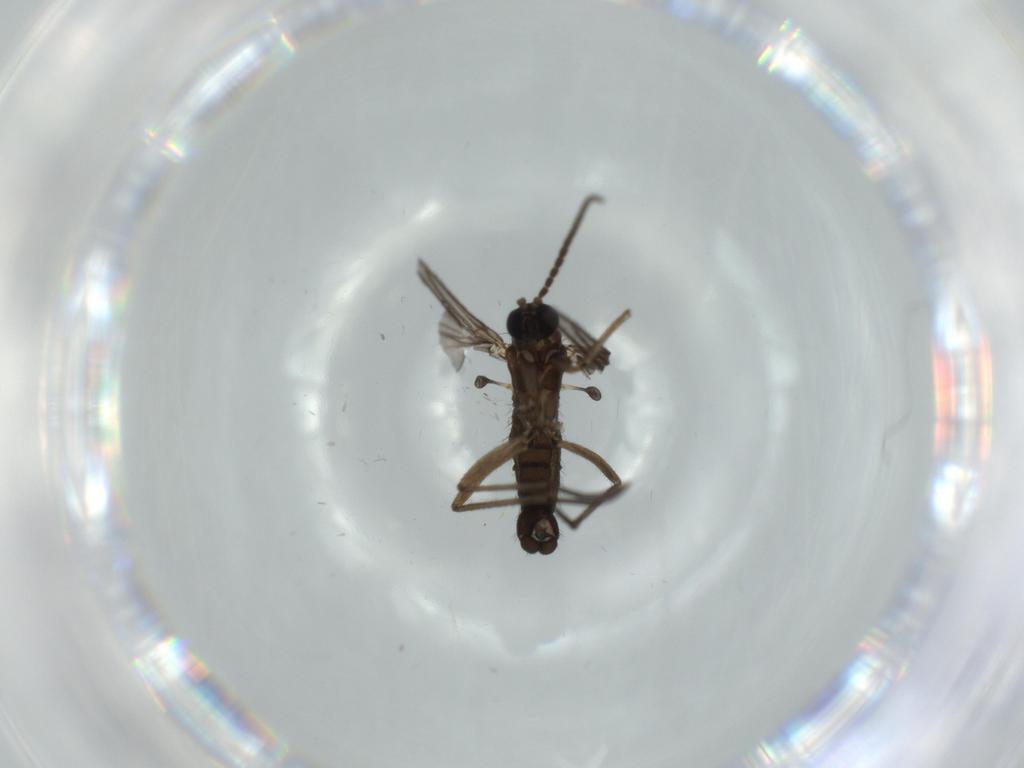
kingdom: Animalia
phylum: Arthropoda
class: Insecta
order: Diptera
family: Sciaridae
